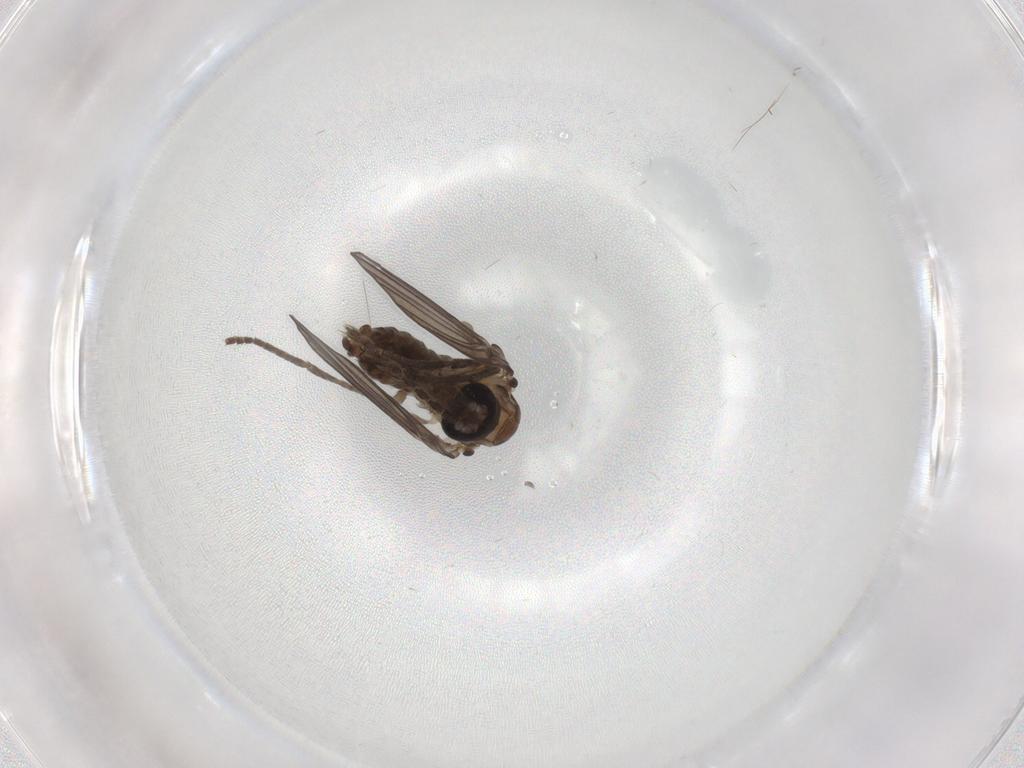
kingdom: Animalia
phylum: Arthropoda
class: Insecta
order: Diptera
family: Psychodidae
